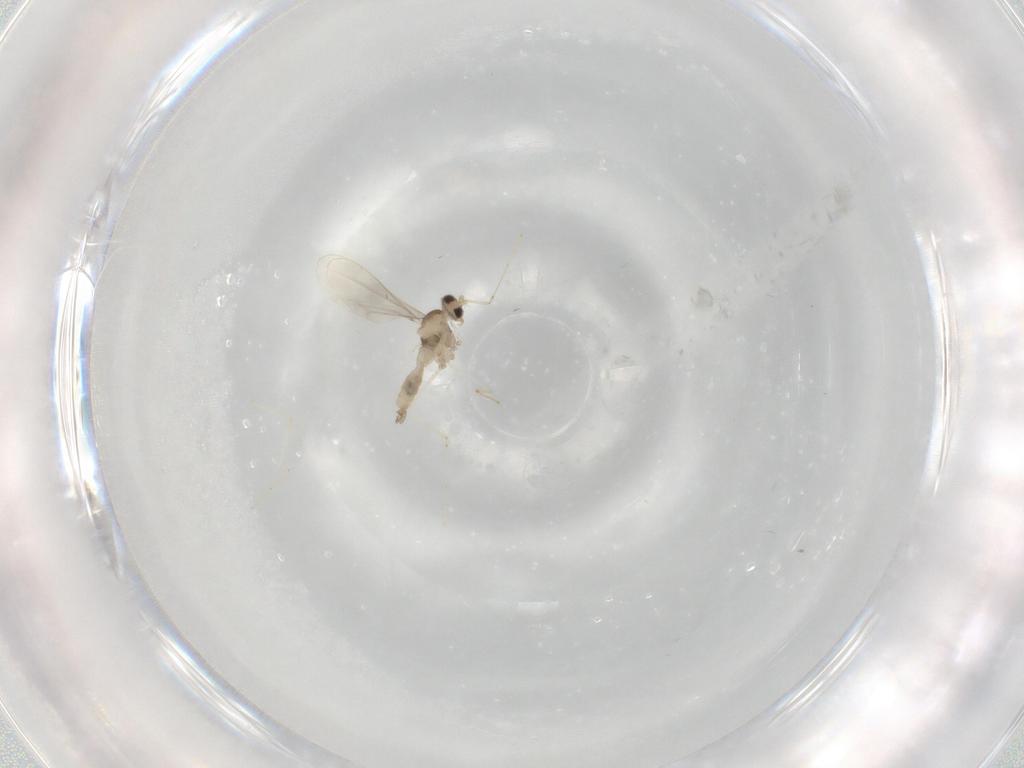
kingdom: Animalia
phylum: Arthropoda
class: Insecta
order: Diptera
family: Cecidomyiidae
